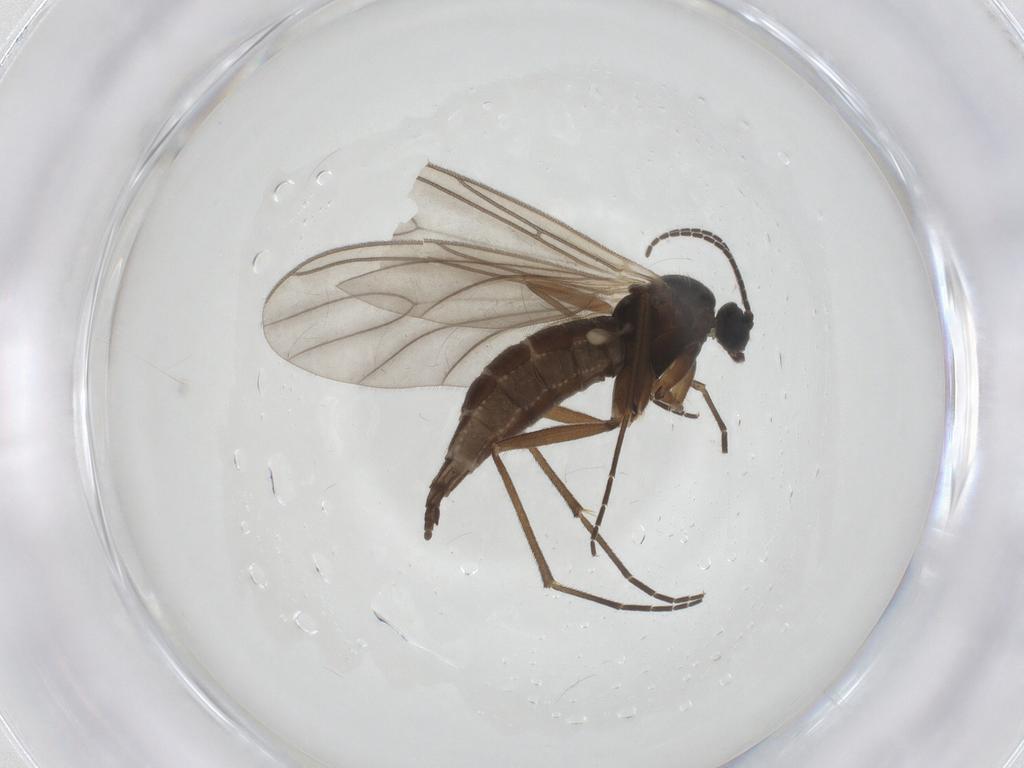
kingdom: Animalia
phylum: Arthropoda
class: Insecta
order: Diptera
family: Sciaridae
